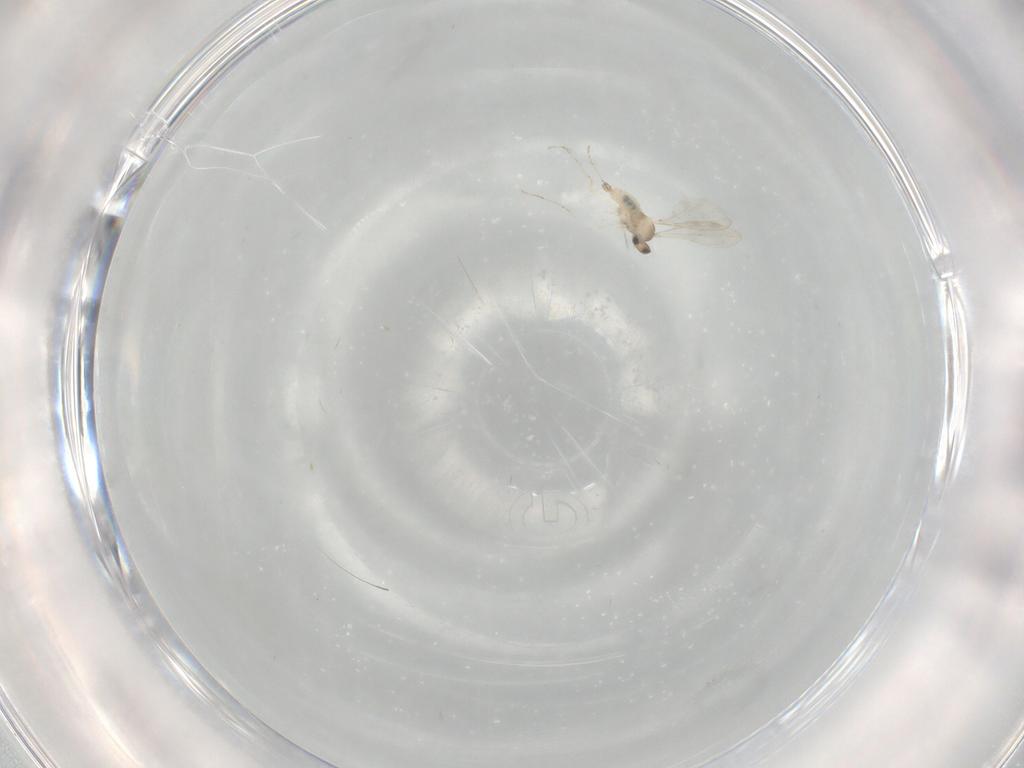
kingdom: Animalia
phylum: Arthropoda
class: Insecta
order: Diptera
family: Cecidomyiidae
